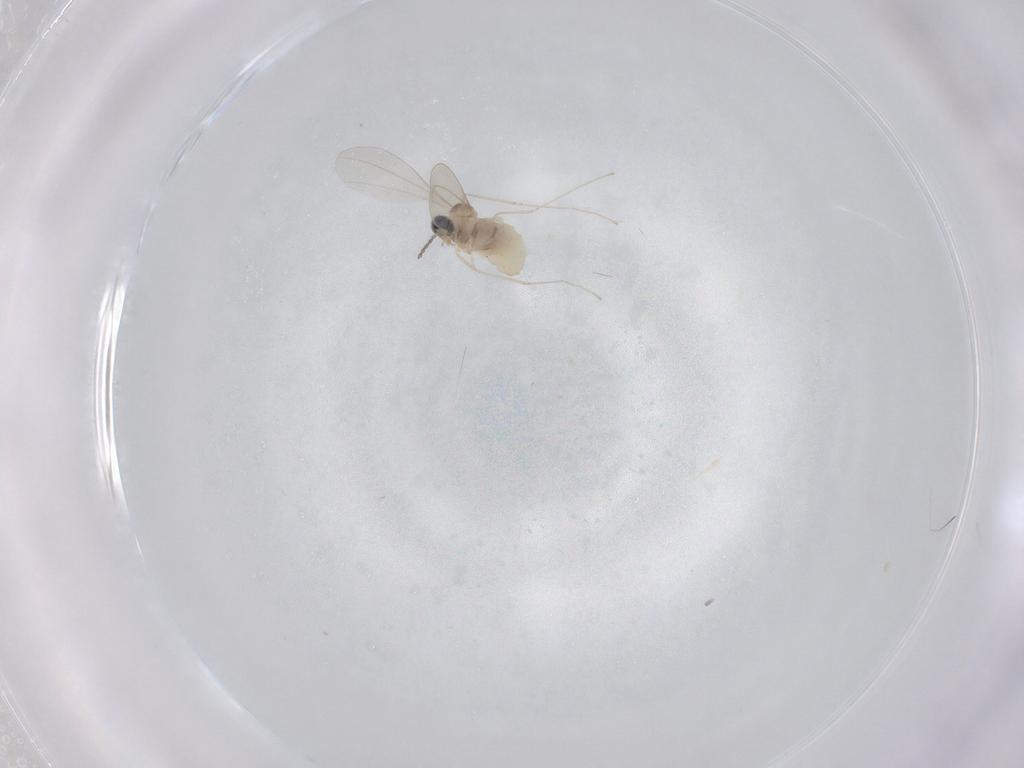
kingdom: Animalia
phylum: Arthropoda
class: Insecta
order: Diptera
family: Cecidomyiidae
